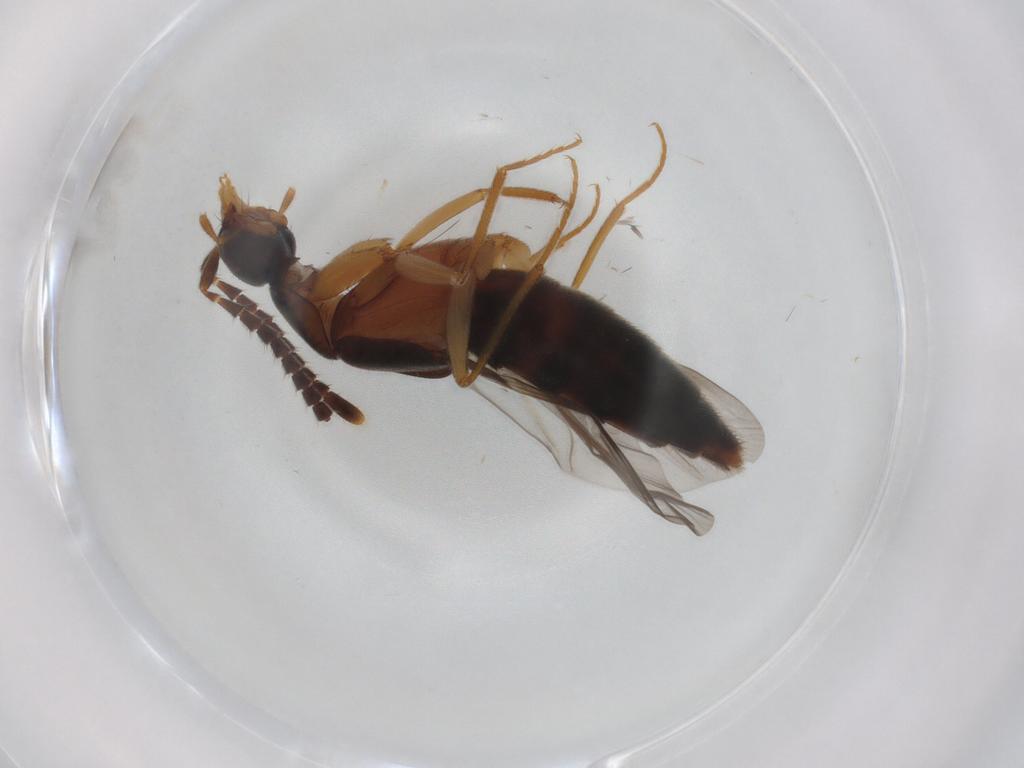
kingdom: Animalia
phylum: Arthropoda
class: Insecta
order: Coleoptera
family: Staphylinidae
